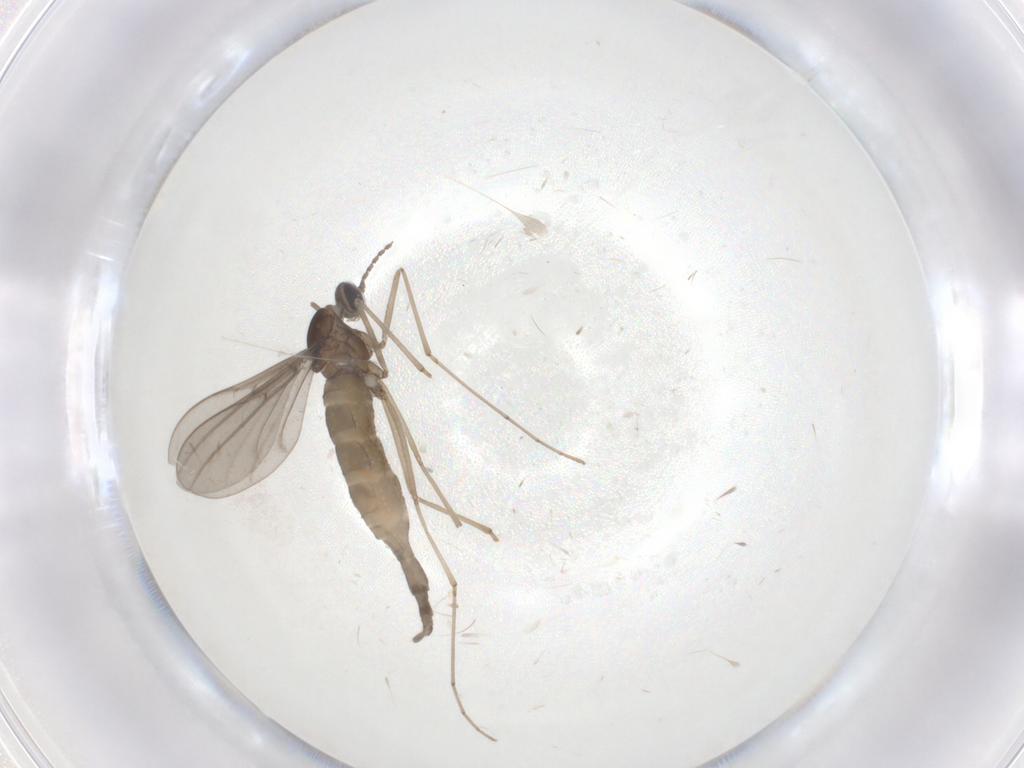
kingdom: Animalia
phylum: Arthropoda
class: Insecta
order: Diptera
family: Cecidomyiidae
